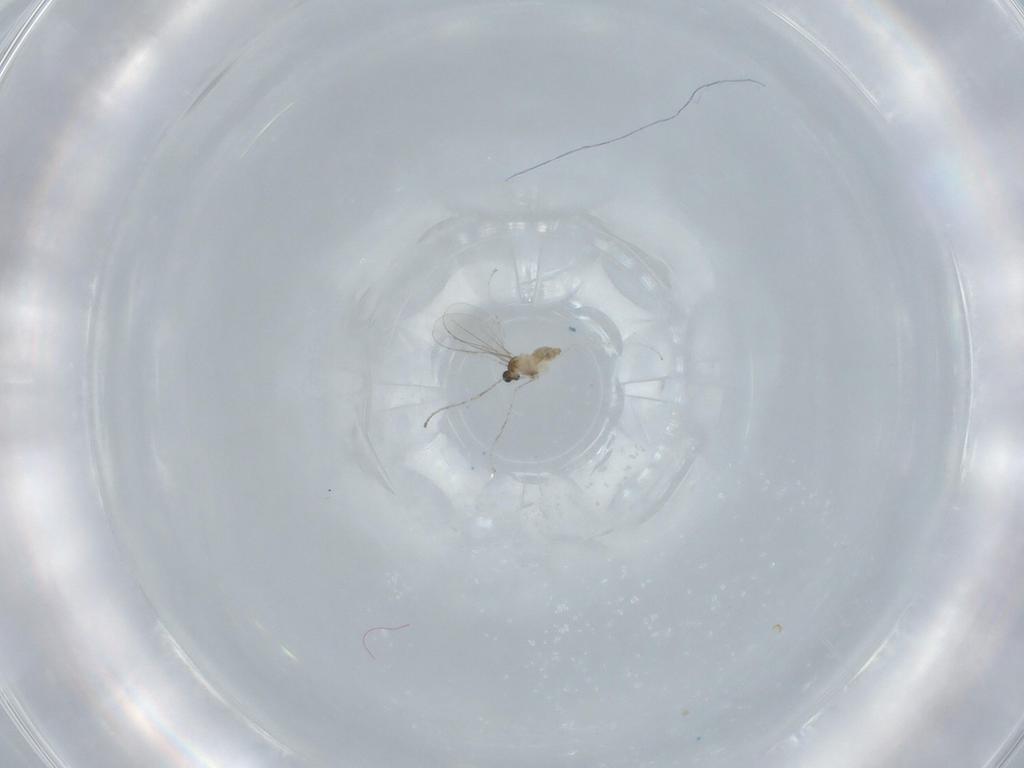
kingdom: Animalia
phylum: Arthropoda
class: Insecta
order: Diptera
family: Cecidomyiidae
